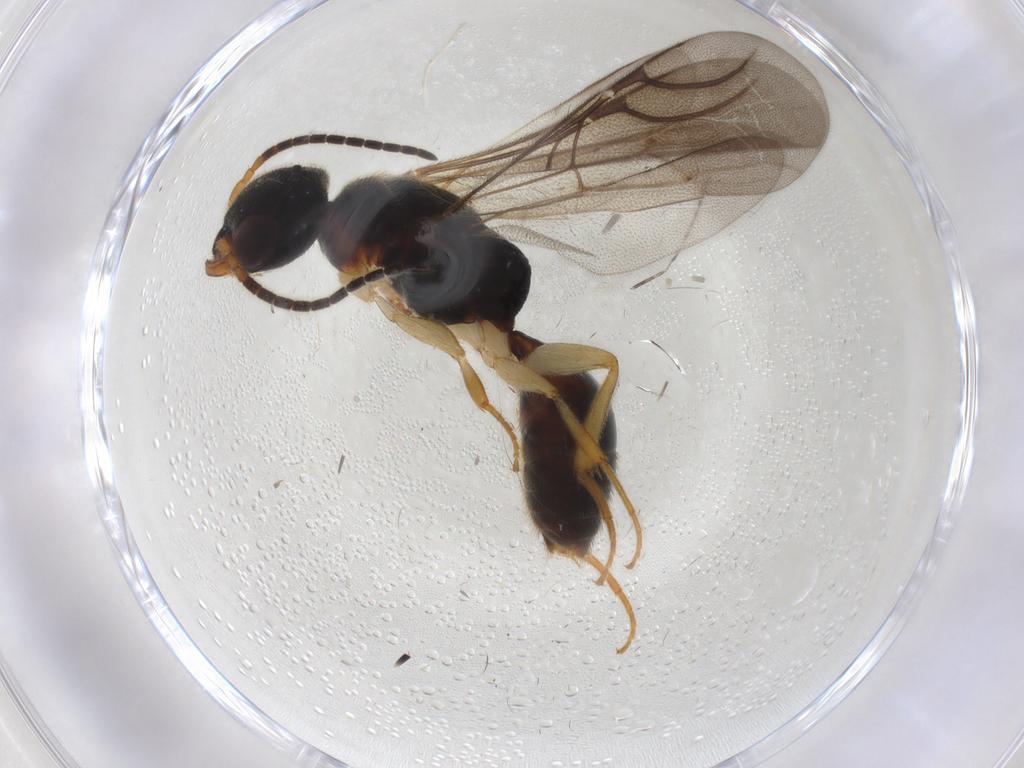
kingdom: Animalia
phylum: Arthropoda
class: Insecta
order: Hymenoptera
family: Bethylidae
